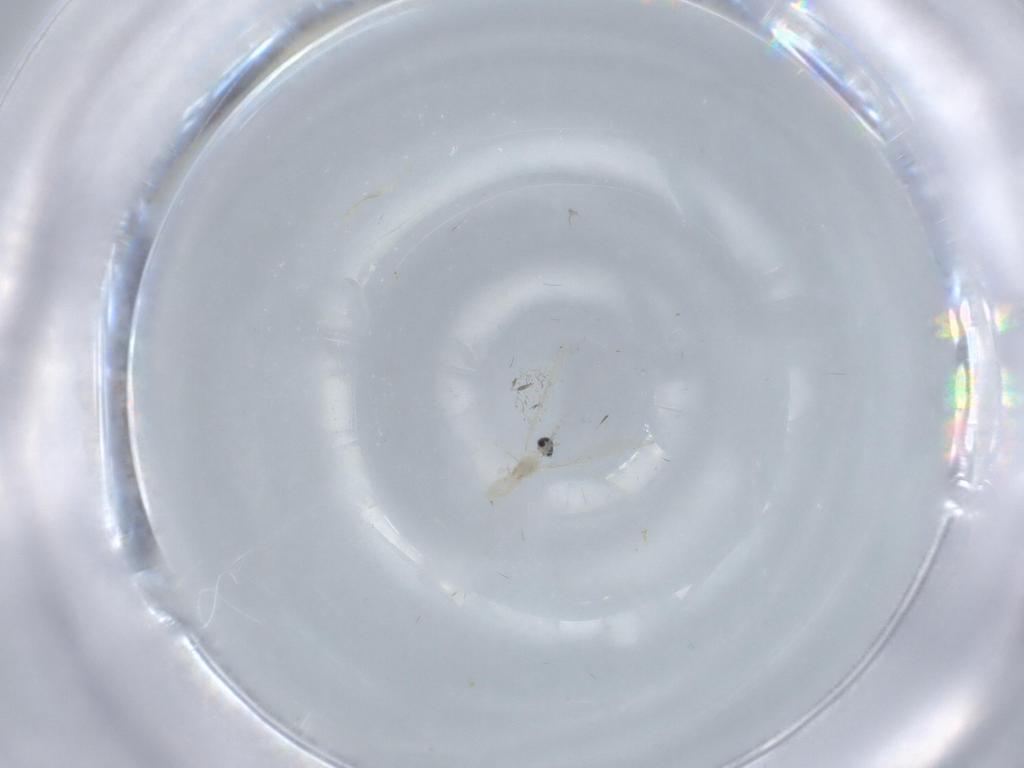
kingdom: Animalia
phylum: Arthropoda
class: Insecta
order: Diptera
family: Cecidomyiidae
